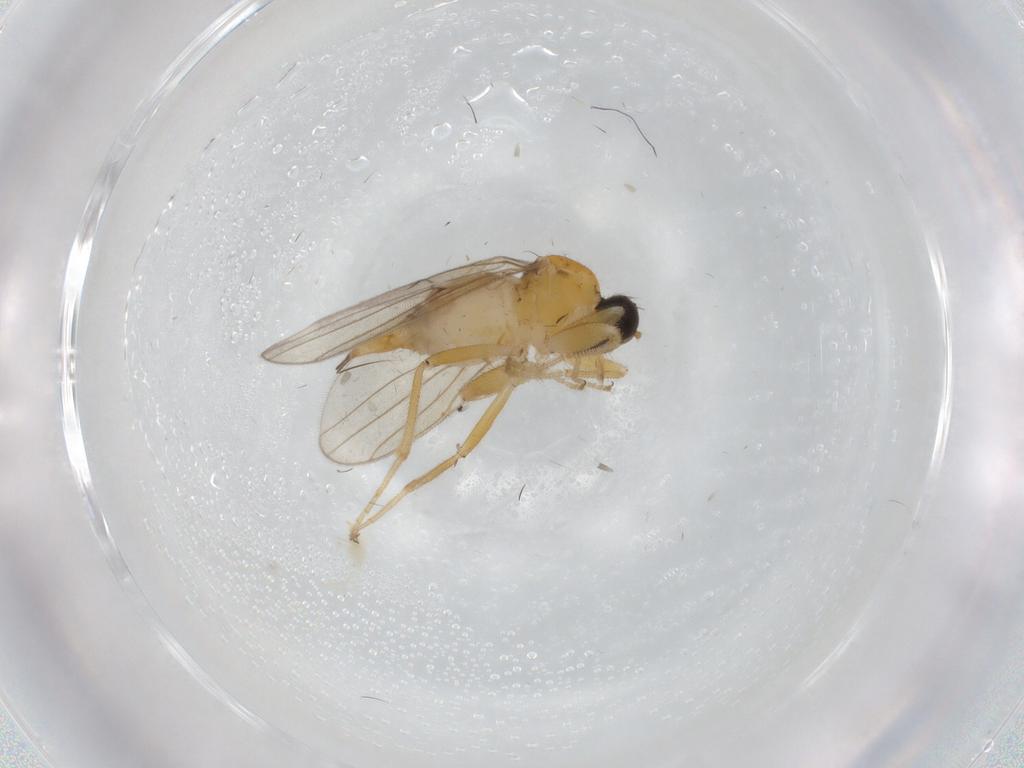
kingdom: Animalia
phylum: Arthropoda
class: Insecta
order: Diptera
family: Hybotidae
